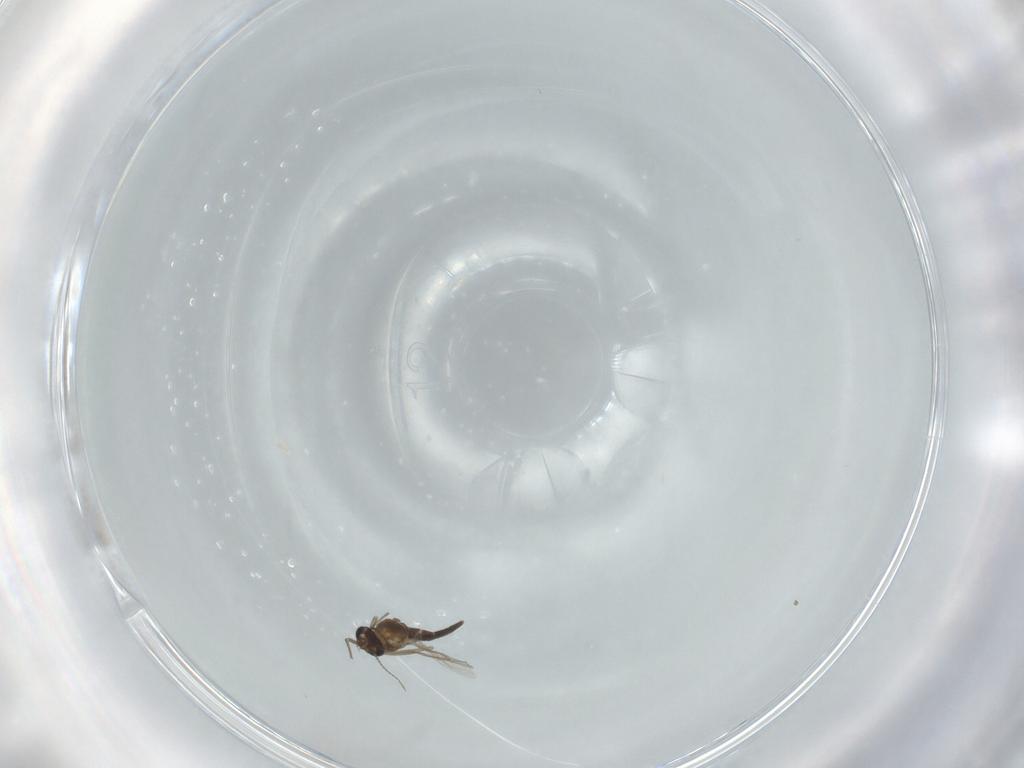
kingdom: Animalia
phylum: Arthropoda
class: Insecta
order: Diptera
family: Chironomidae
